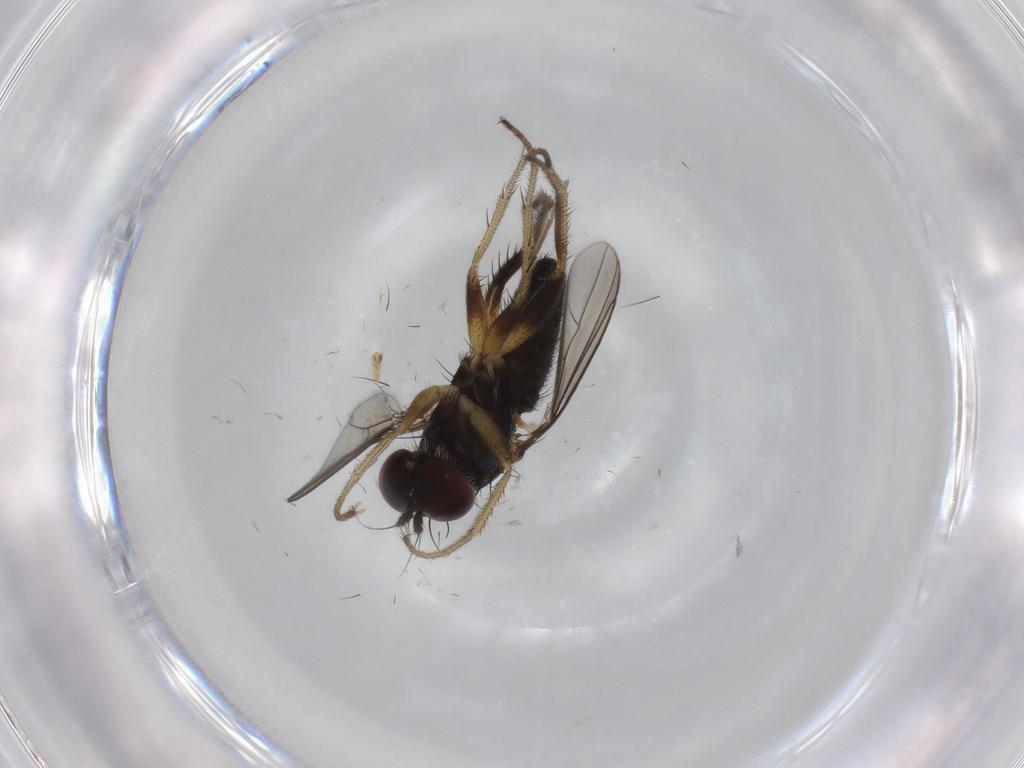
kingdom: Animalia
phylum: Arthropoda
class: Insecta
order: Diptera
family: Dolichopodidae
